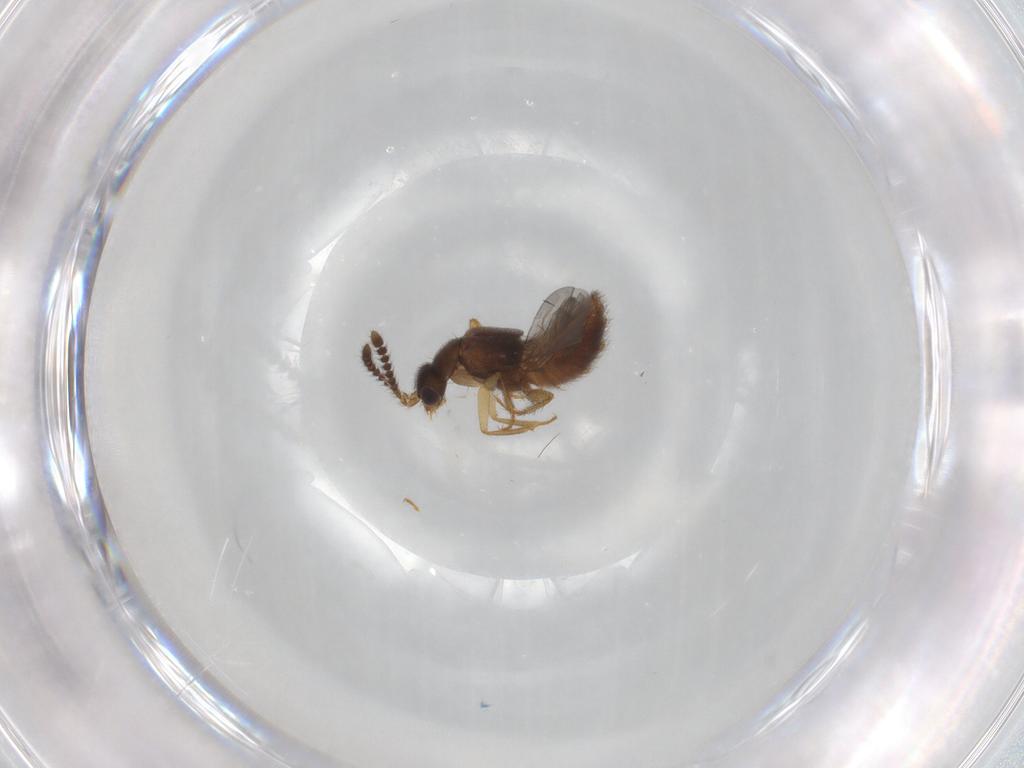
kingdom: Animalia
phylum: Arthropoda
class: Insecta
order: Coleoptera
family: Staphylinidae
